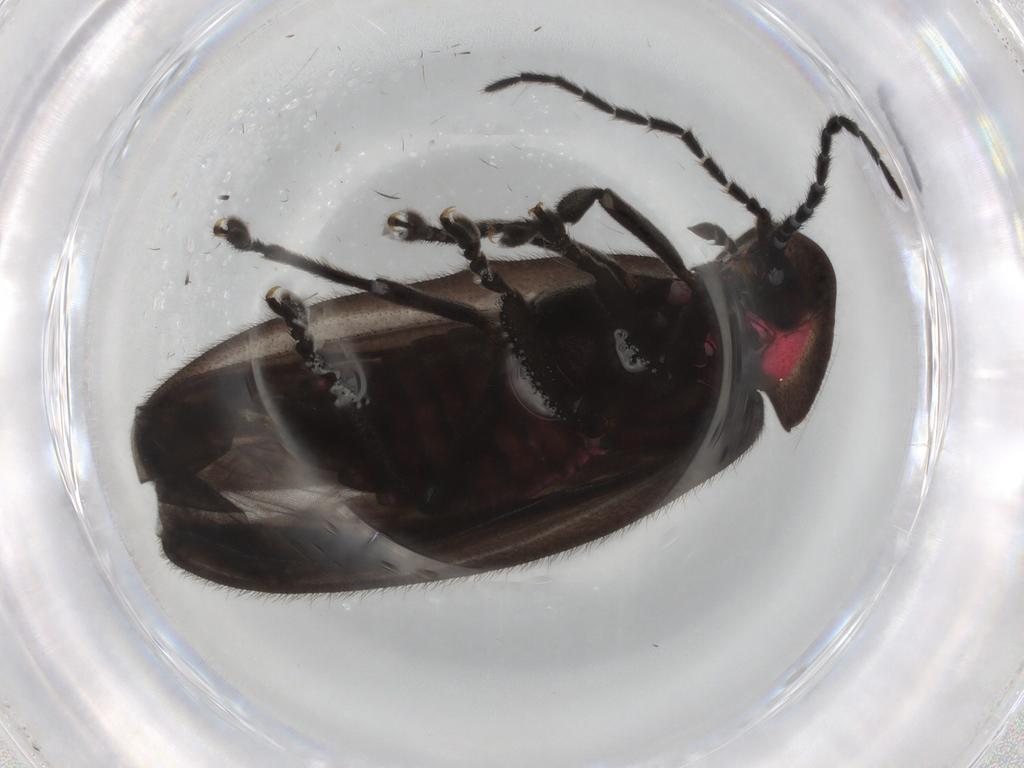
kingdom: Animalia
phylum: Arthropoda
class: Insecta
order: Coleoptera
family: Lampyridae
